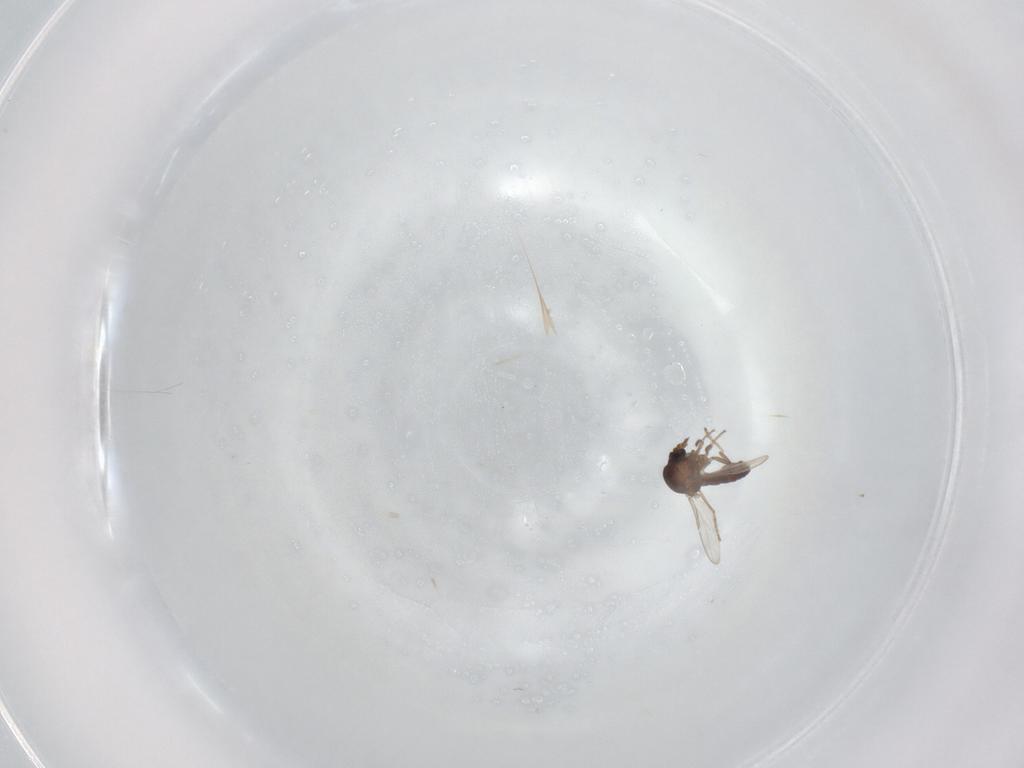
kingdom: Animalia
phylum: Arthropoda
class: Insecta
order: Diptera
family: Ceratopogonidae
